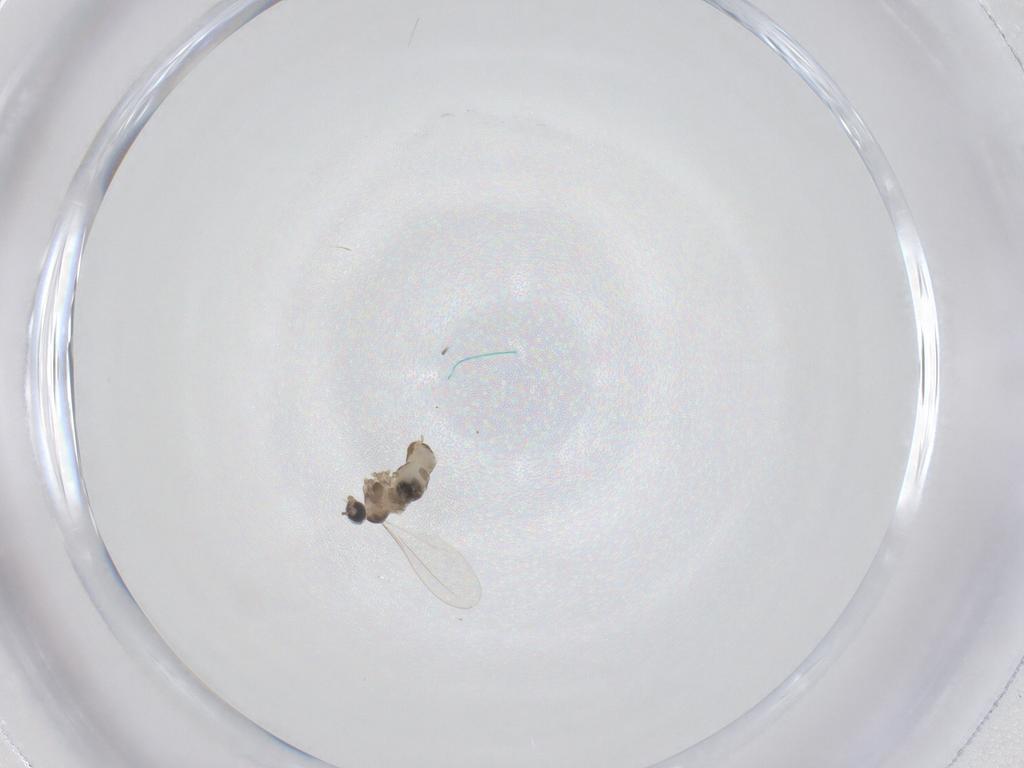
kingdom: Animalia
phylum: Arthropoda
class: Insecta
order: Diptera
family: Cecidomyiidae
